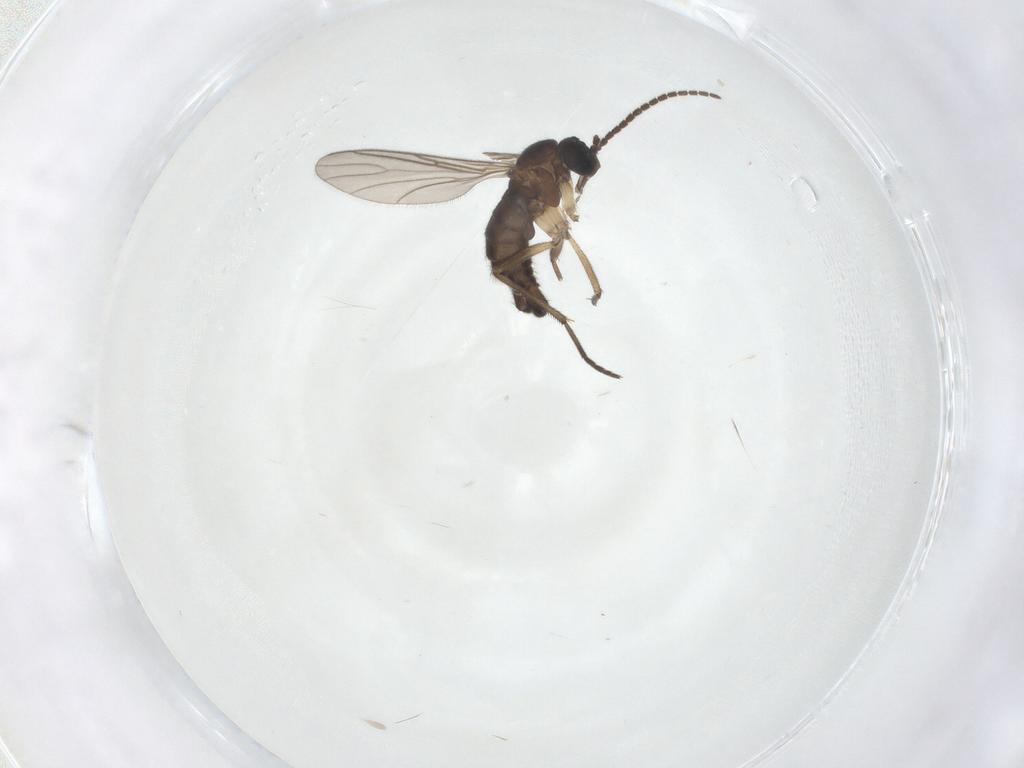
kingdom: Animalia
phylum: Arthropoda
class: Insecta
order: Diptera
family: Sciaridae
